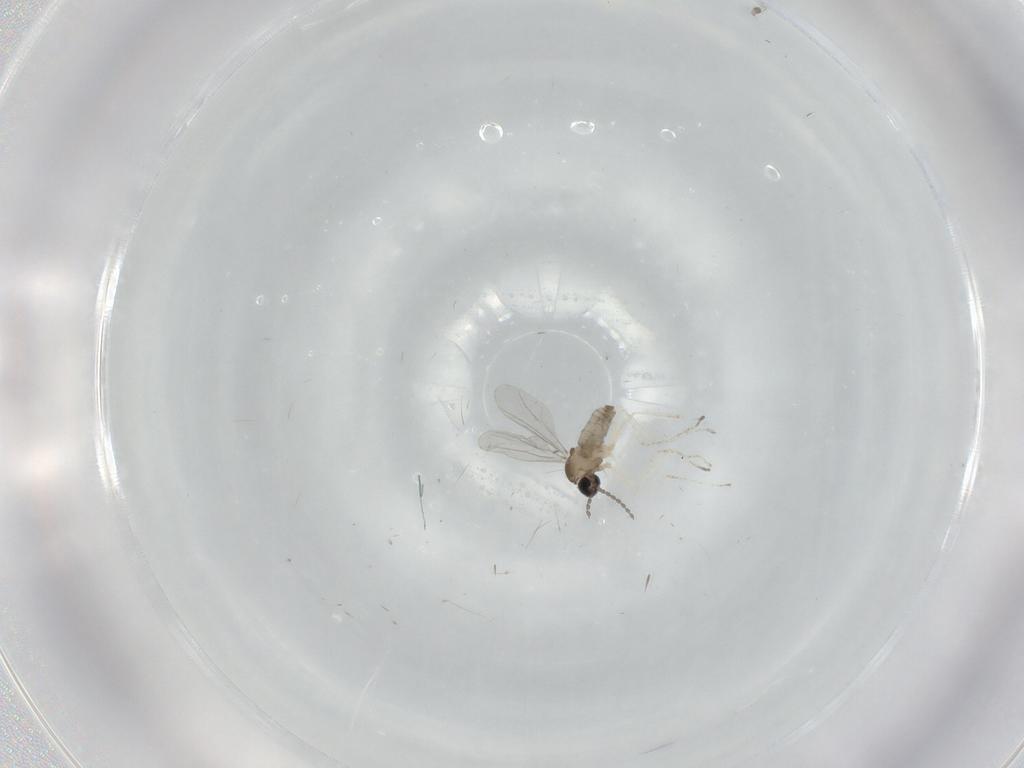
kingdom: Animalia
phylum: Arthropoda
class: Insecta
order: Diptera
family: Cecidomyiidae
